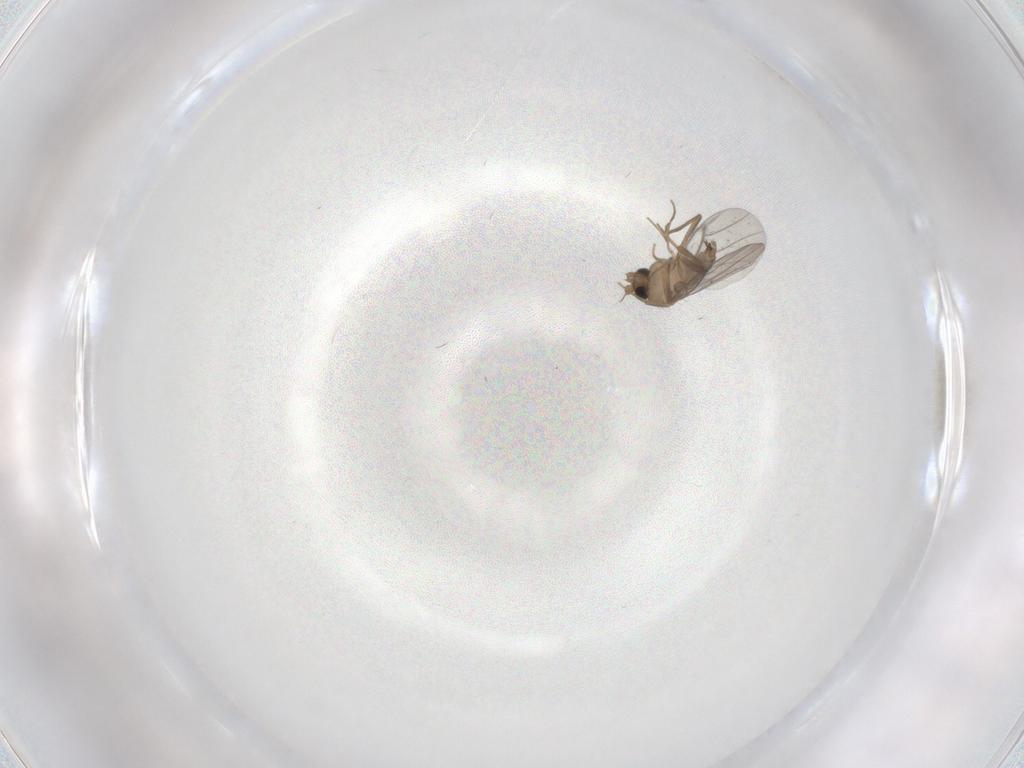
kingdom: Animalia
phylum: Arthropoda
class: Insecta
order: Diptera
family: Chironomidae
